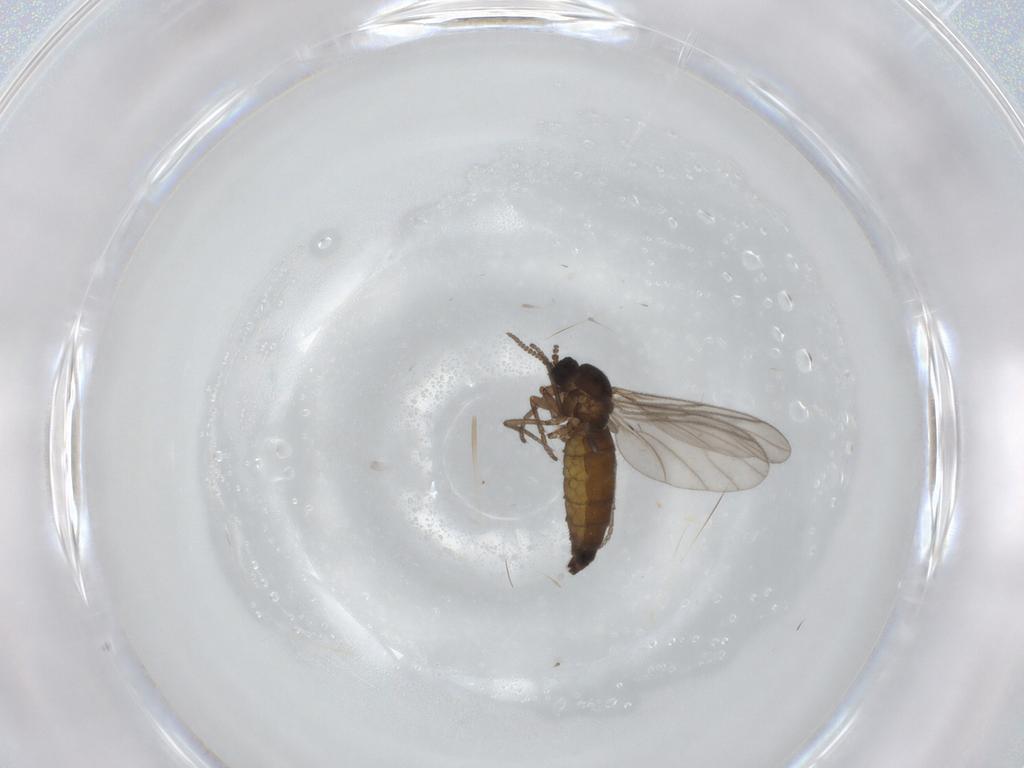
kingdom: Animalia
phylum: Arthropoda
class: Insecta
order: Diptera
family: Sciaridae
